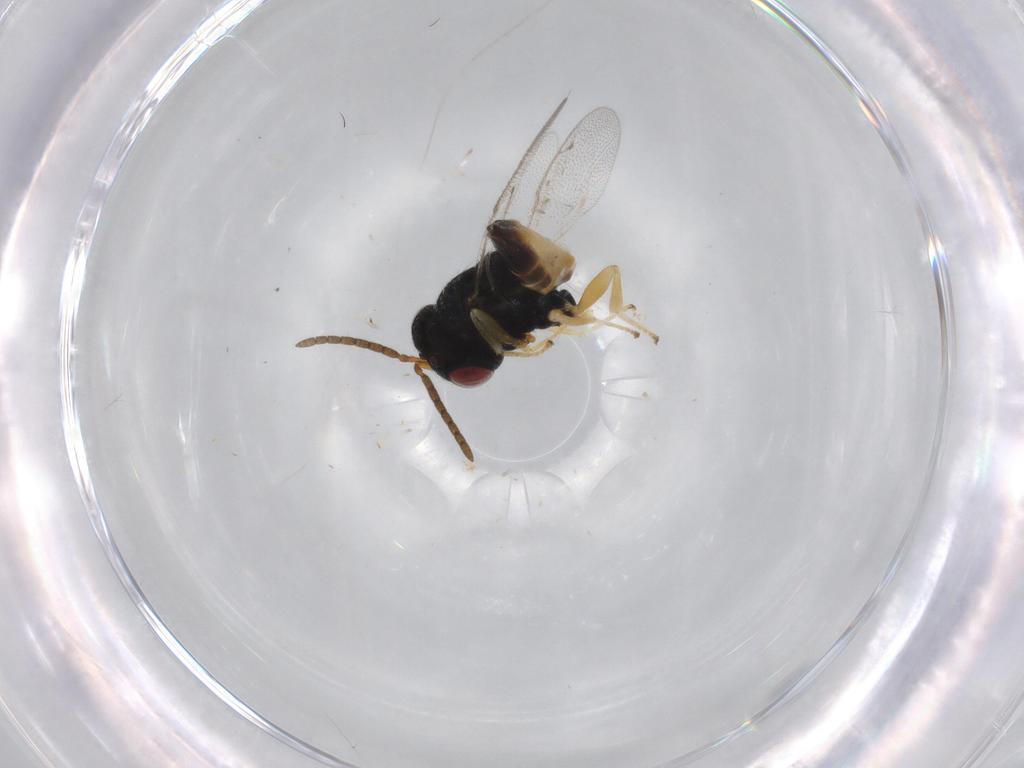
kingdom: Animalia
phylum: Arthropoda
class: Insecta
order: Hymenoptera
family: Pteromalidae
